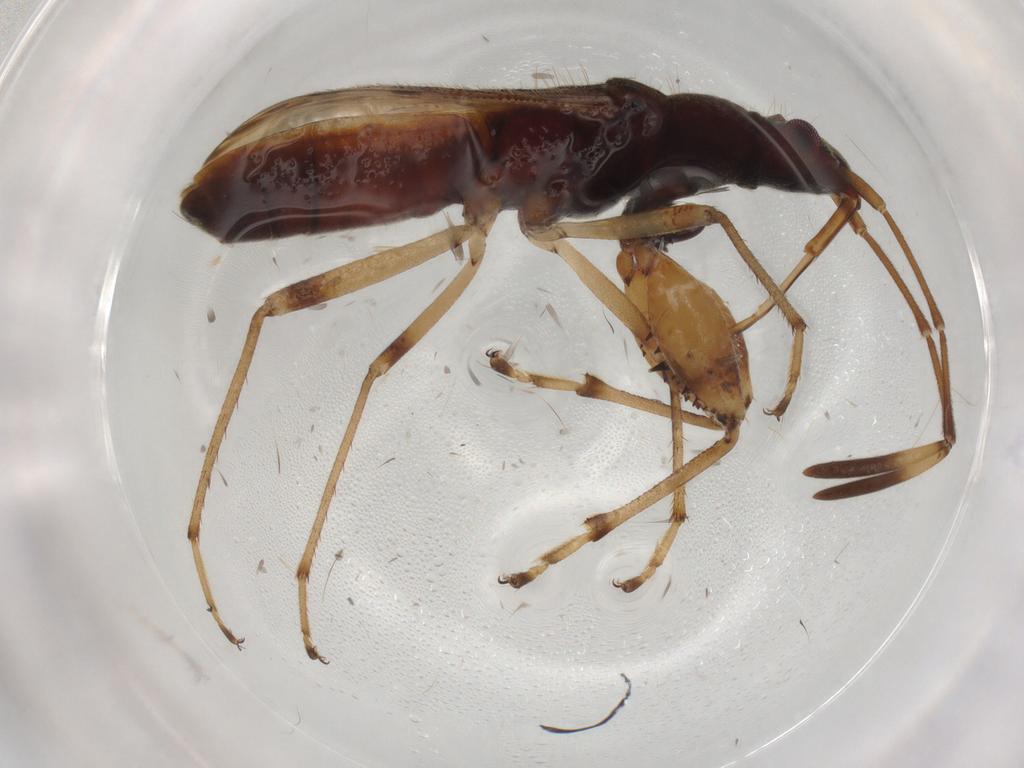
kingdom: Animalia
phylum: Arthropoda
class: Insecta
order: Hemiptera
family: Rhyparochromidae
